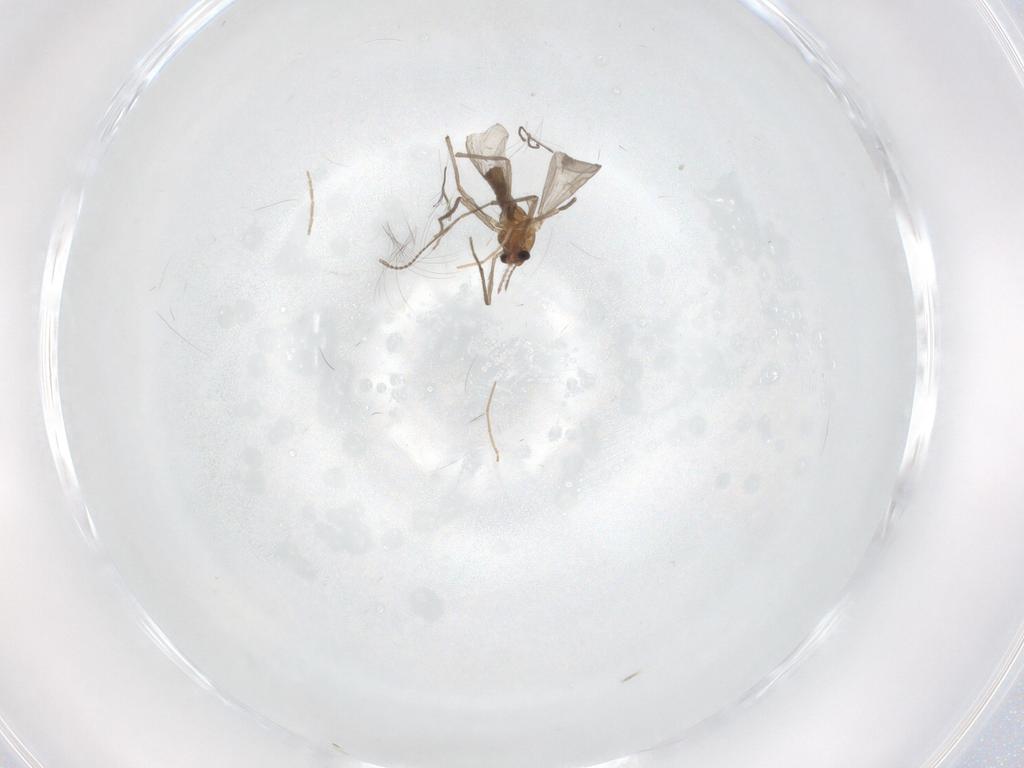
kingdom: Animalia
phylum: Arthropoda
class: Insecta
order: Diptera
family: Chironomidae
